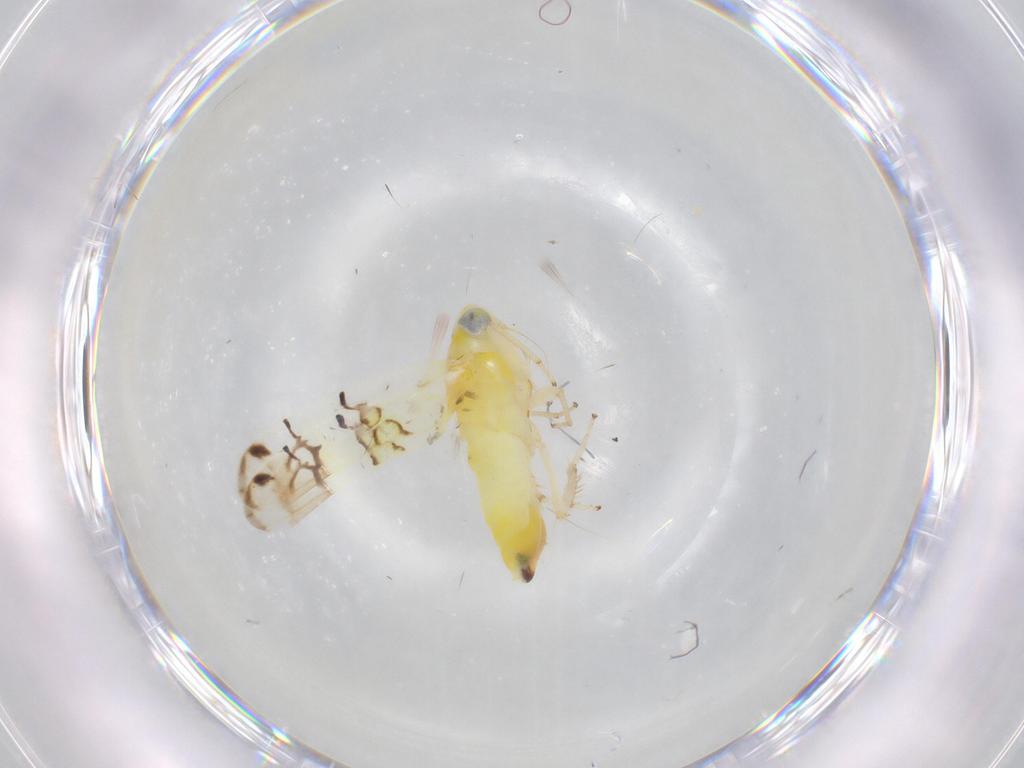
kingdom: Animalia
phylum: Arthropoda
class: Insecta
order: Hemiptera
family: Cicadellidae
